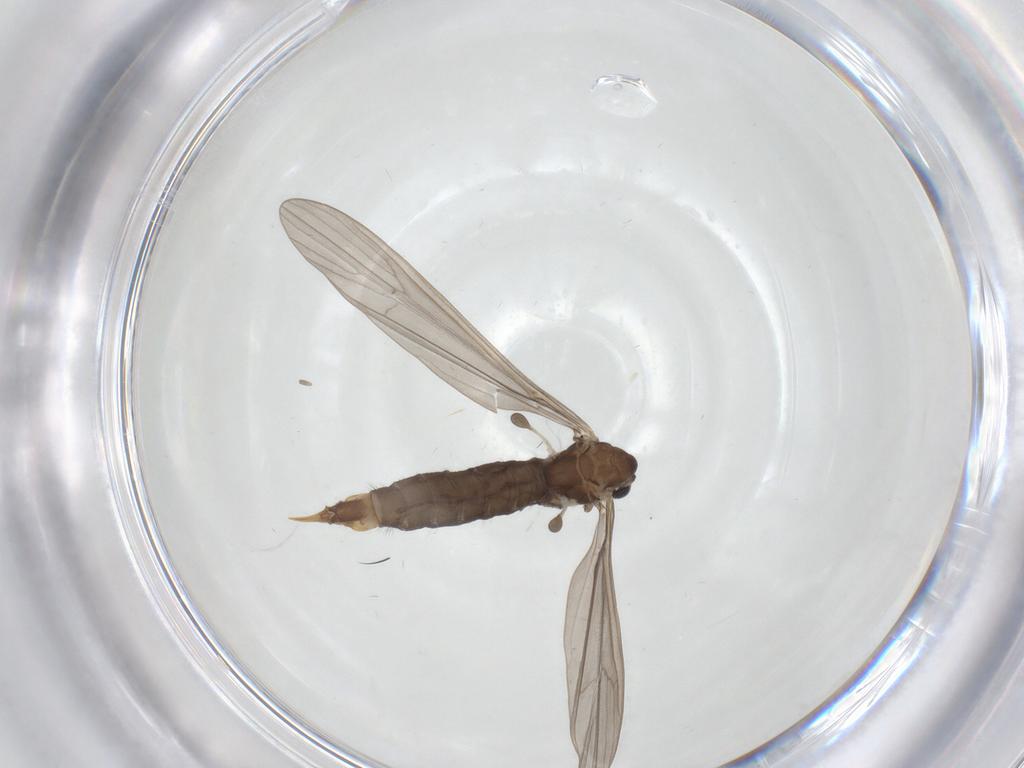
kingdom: Animalia
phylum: Arthropoda
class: Insecta
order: Diptera
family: Limoniidae
